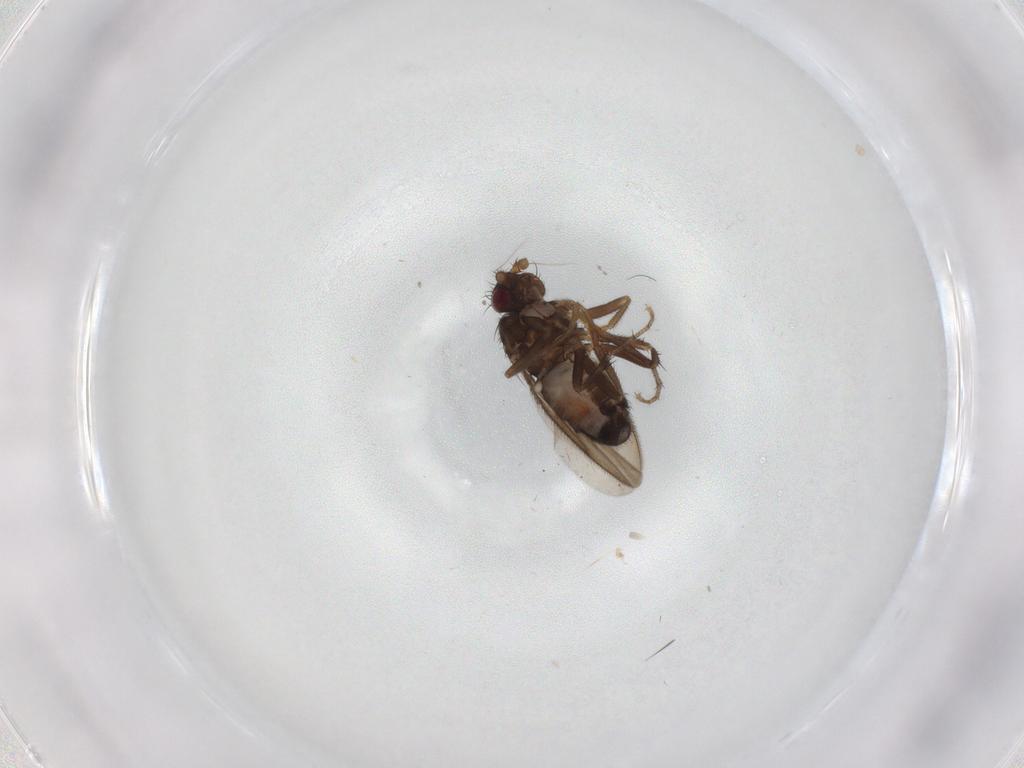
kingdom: Animalia
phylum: Arthropoda
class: Insecta
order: Diptera
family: Sphaeroceridae
